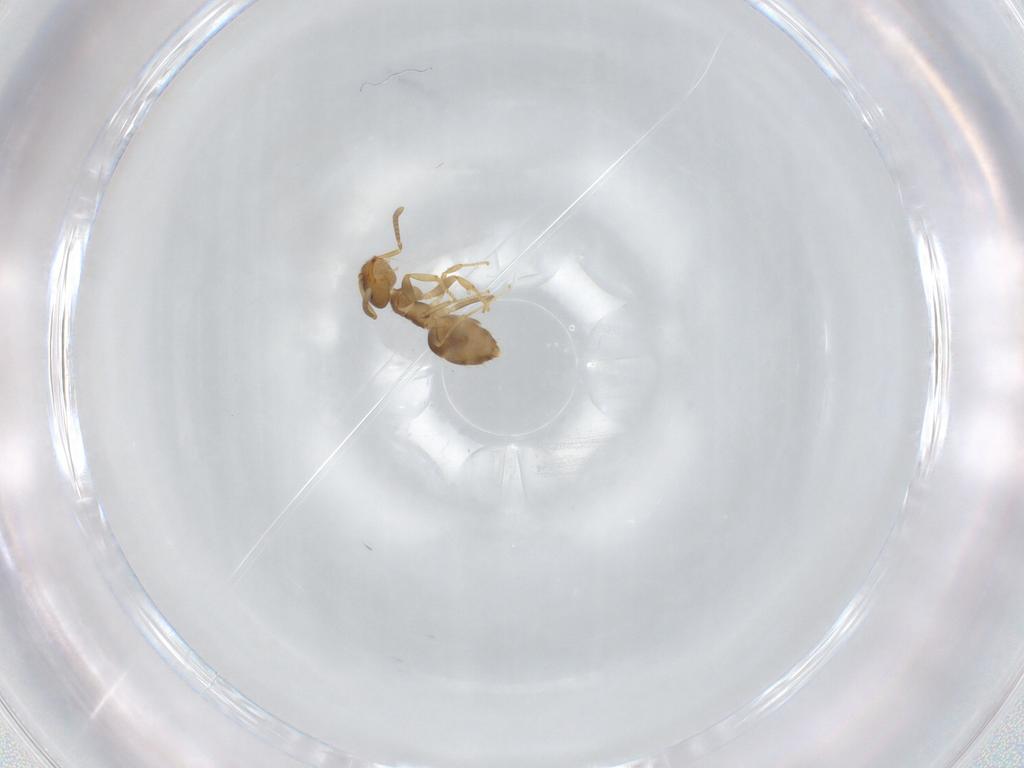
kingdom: Animalia
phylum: Arthropoda
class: Insecta
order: Hymenoptera
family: Formicidae
